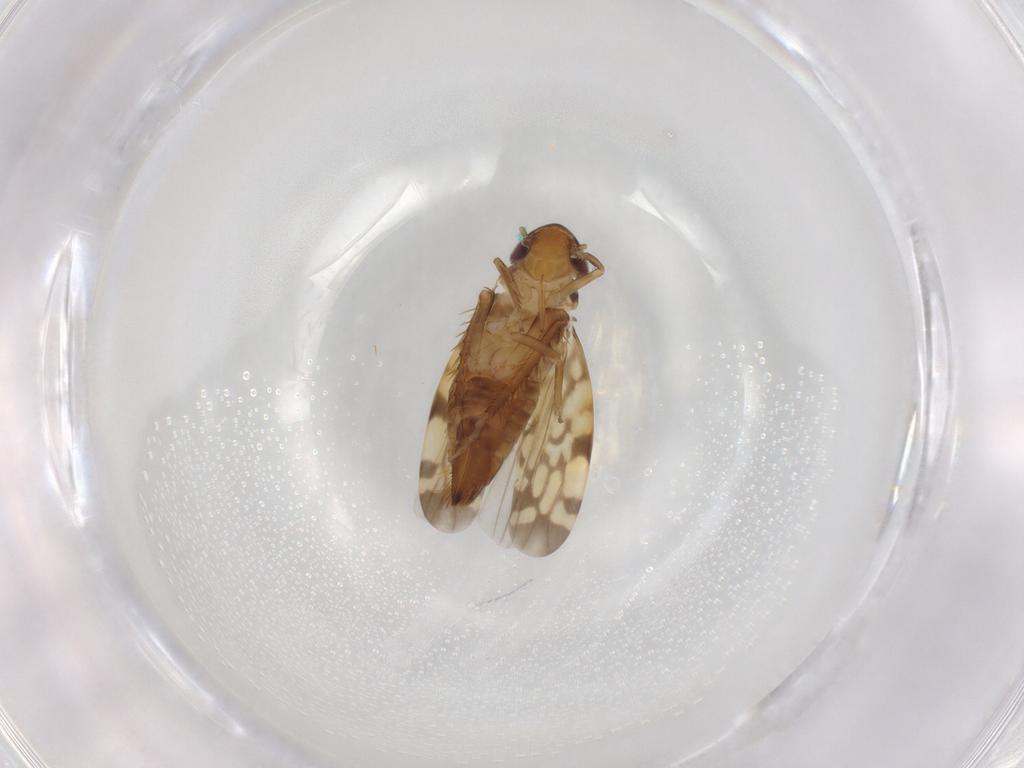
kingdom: Animalia
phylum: Arthropoda
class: Insecta
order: Hemiptera
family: Cicadellidae
